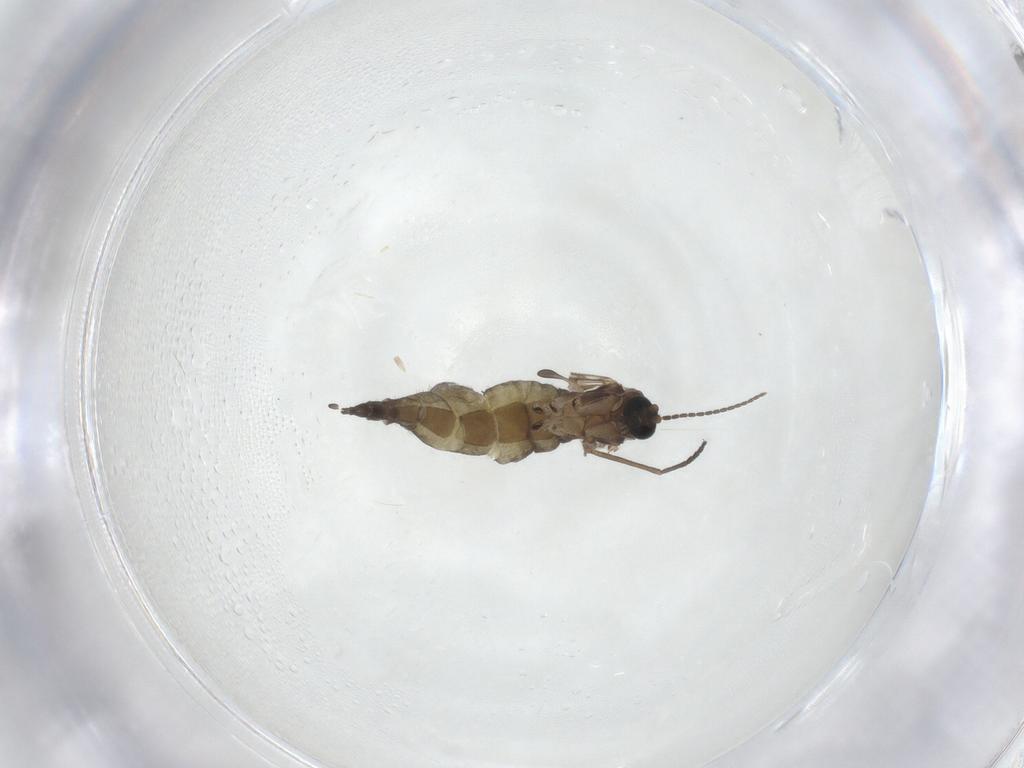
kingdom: Animalia
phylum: Arthropoda
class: Insecta
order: Diptera
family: Sciaridae
